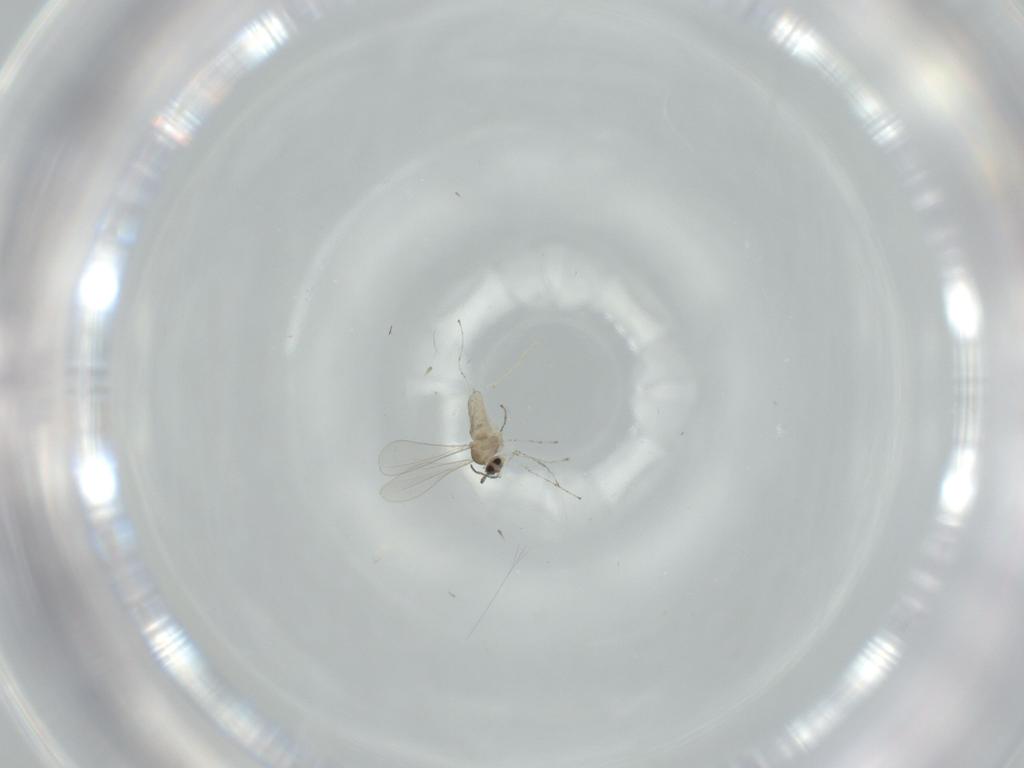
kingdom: Animalia
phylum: Arthropoda
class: Insecta
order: Diptera
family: Cecidomyiidae
